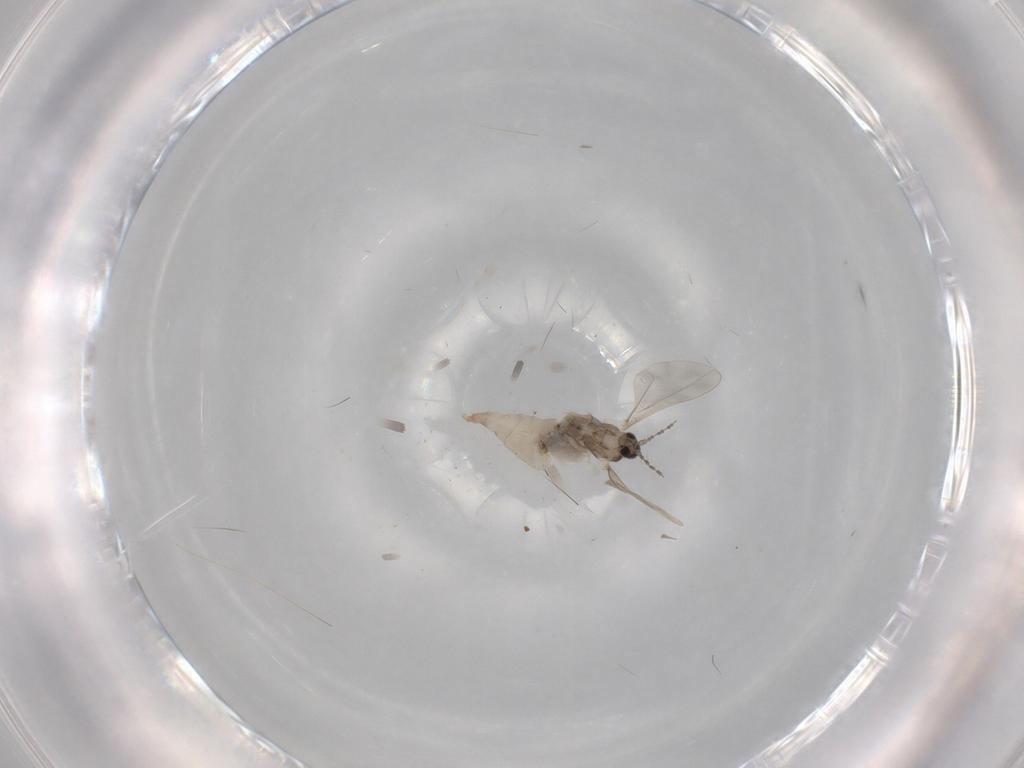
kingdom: Animalia
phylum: Arthropoda
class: Insecta
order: Diptera
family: Cecidomyiidae
